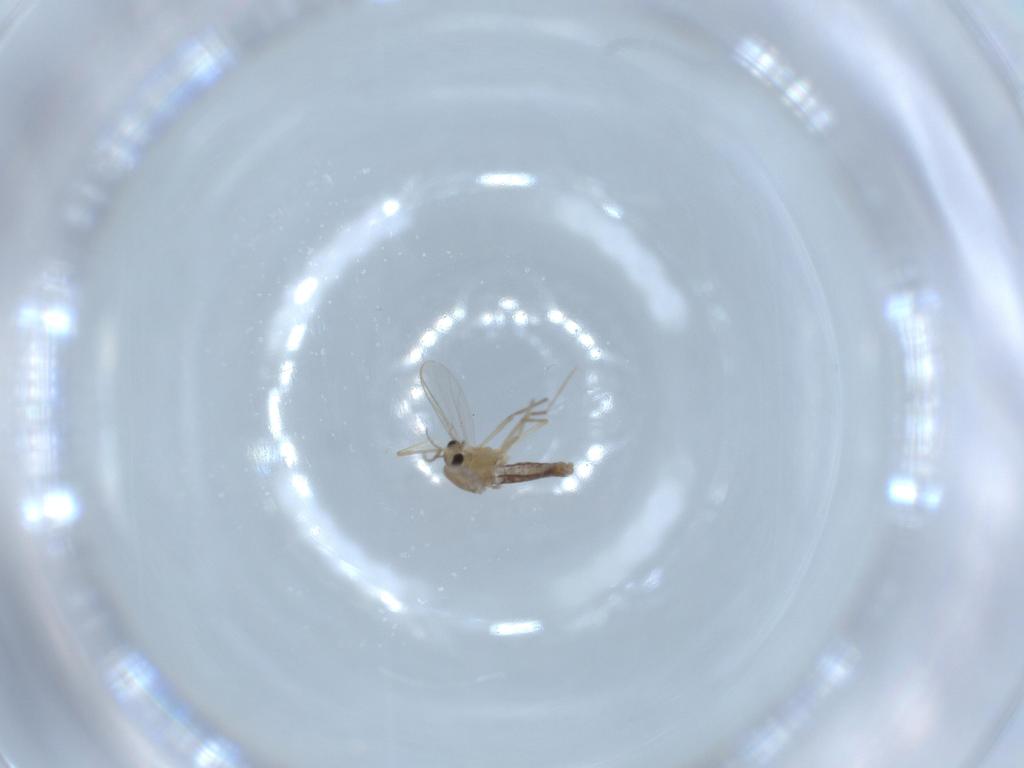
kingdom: Animalia
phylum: Arthropoda
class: Insecta
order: Diptera
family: Chironomidae
